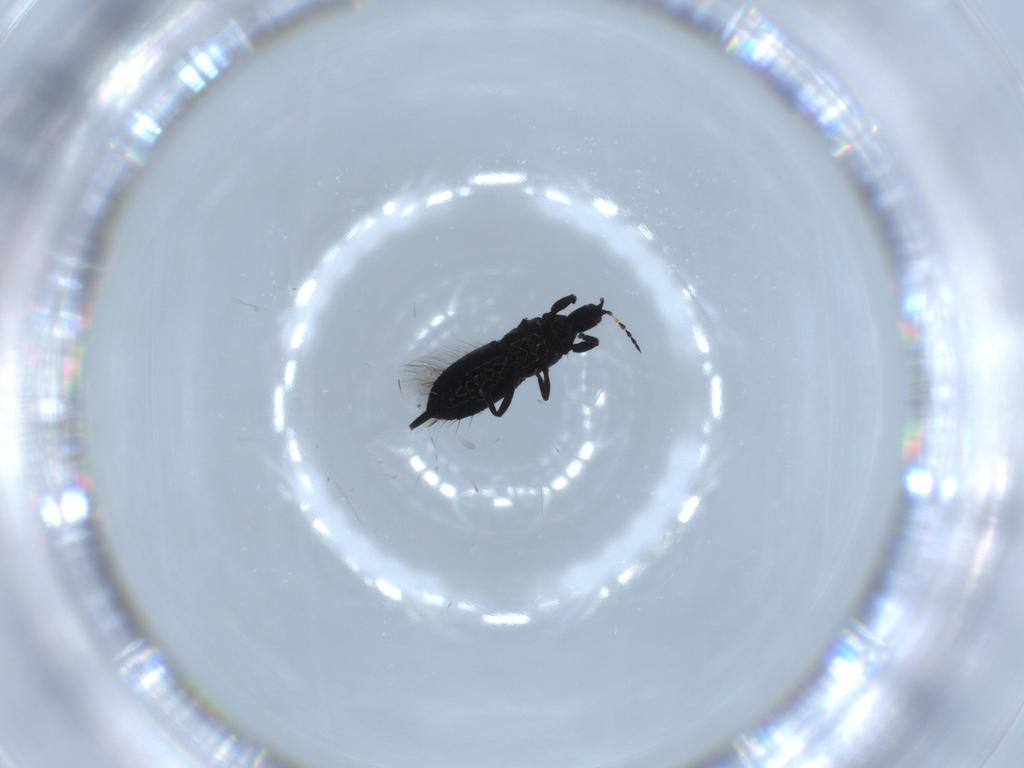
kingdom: Animalia
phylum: Arthropoda
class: Insecta
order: Thysanoptera
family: Phlaeothripidae
